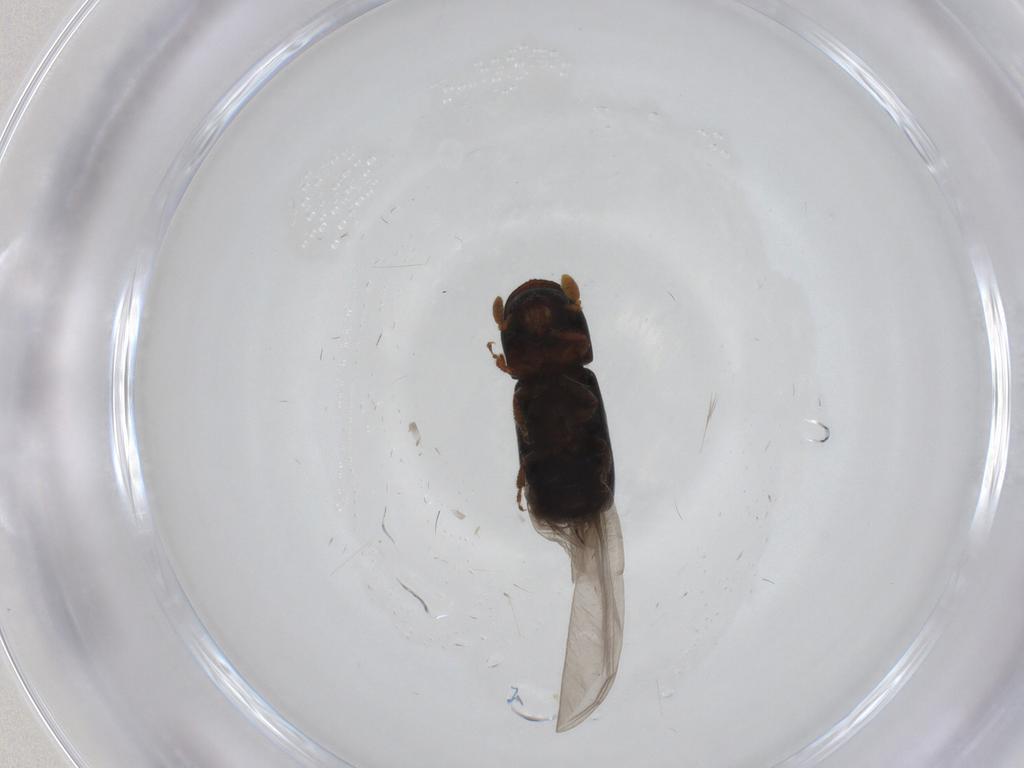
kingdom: Animalia
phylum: Arthropoda
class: Insecta
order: Coleoptera
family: Curculionidae
